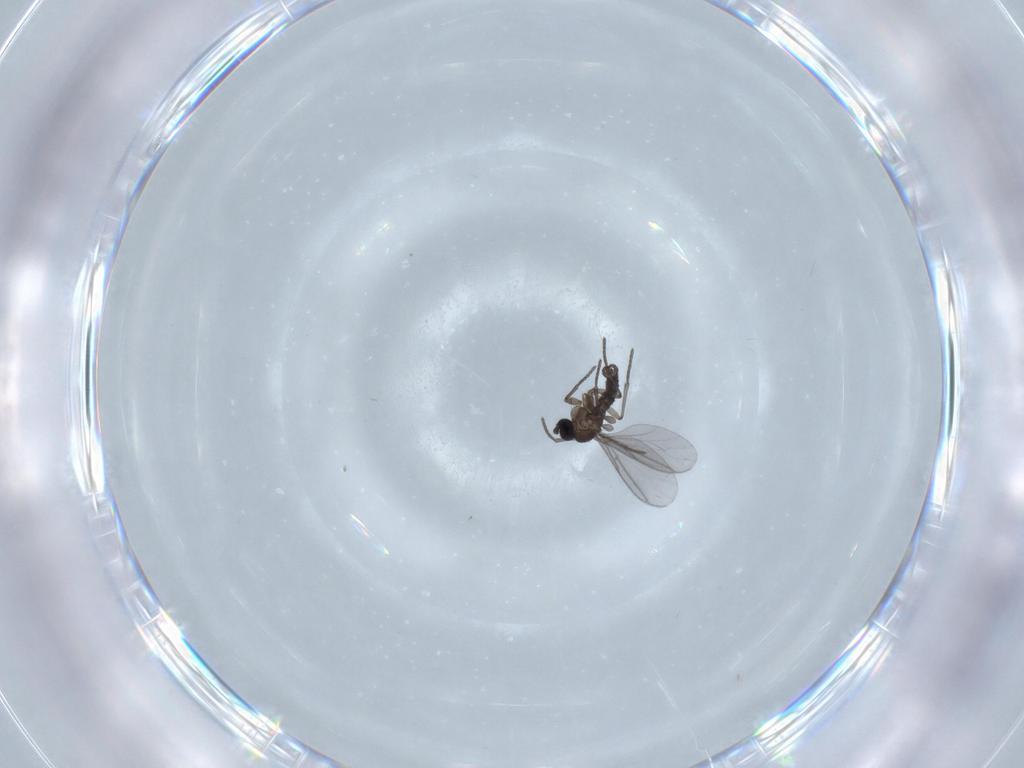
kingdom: Animalia
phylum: Arthropoda
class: Insecta
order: Diptera
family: Chironomidae
